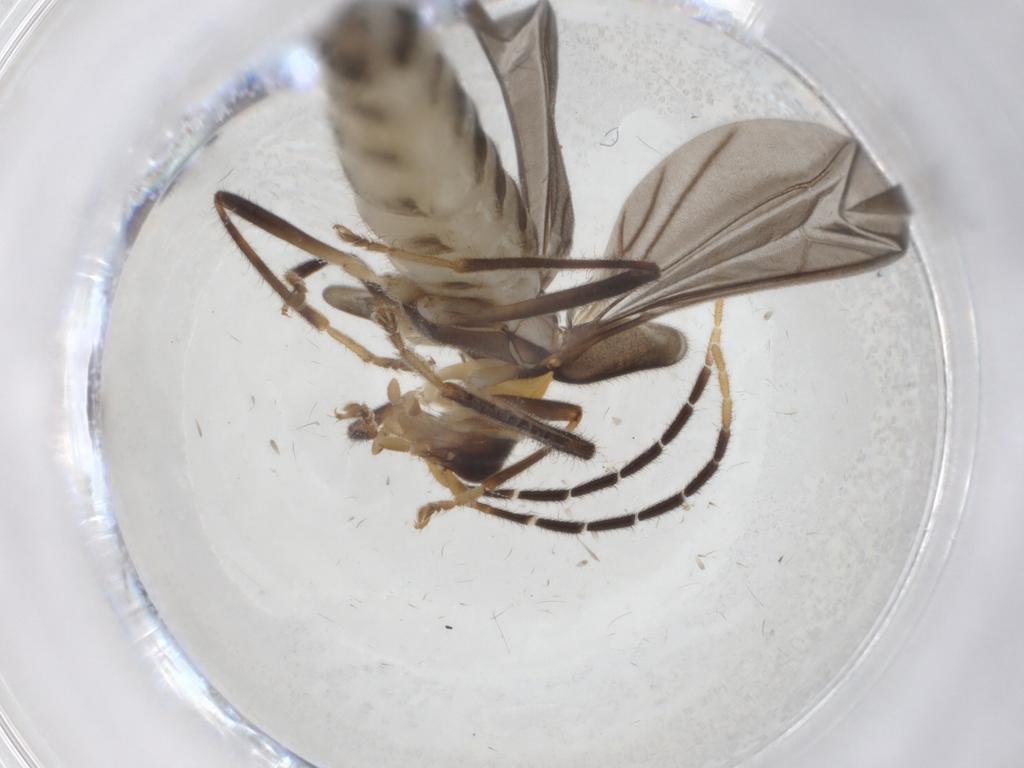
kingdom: Animalia
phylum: Arthropoda
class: Insecta
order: Coleoptera
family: Cantharidae
